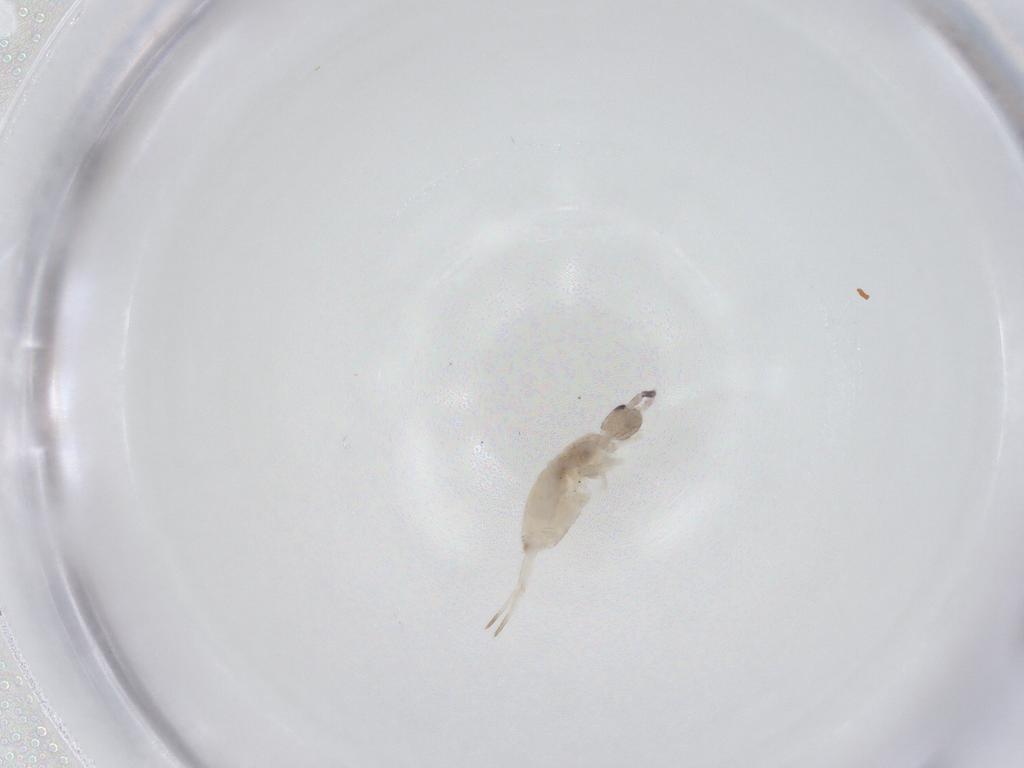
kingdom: Animalia
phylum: Arthropoda
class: Collembola
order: Entomobryomorpha
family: Entomobryidae
